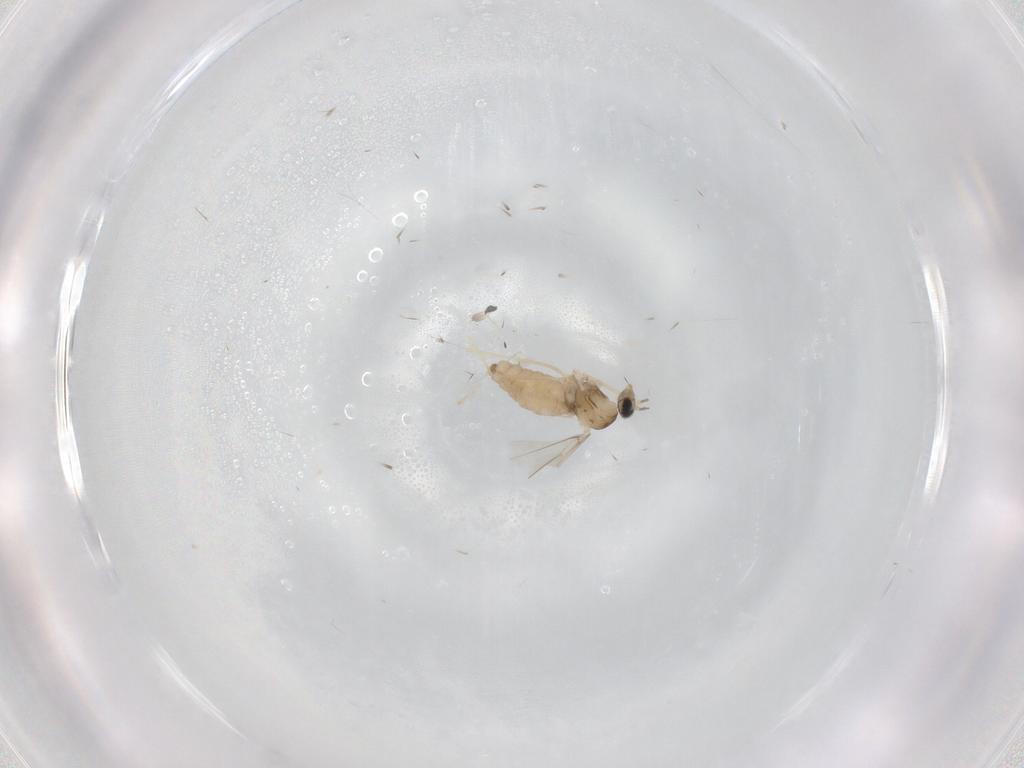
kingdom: Animalia
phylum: Arthropoda
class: Insecta
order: Diptera
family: Cecidomyiidae
